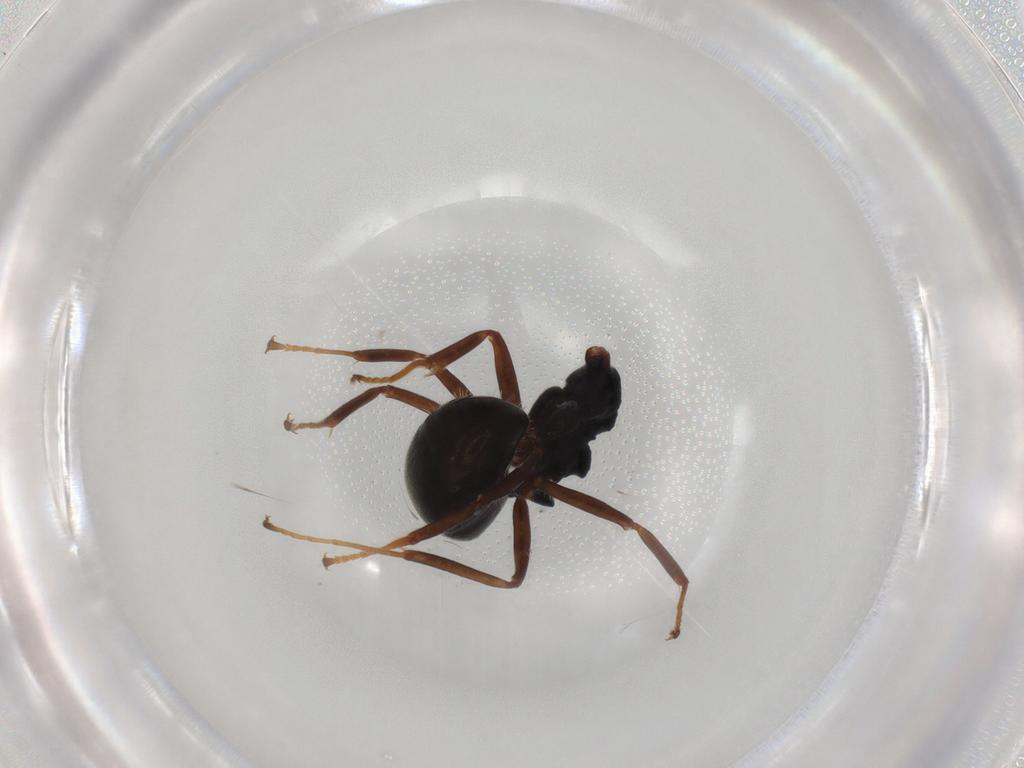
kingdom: Animalia
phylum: Arthropoda
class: Insecta
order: Hymenoptera
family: Formicidae
